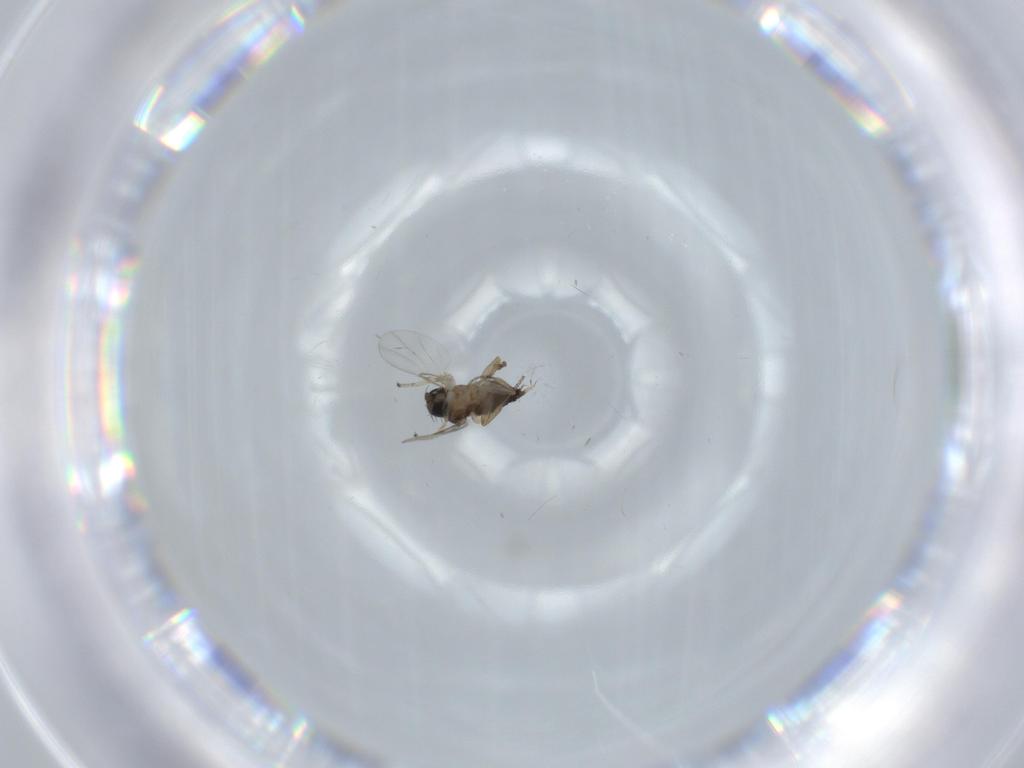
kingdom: Animalia
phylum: Arthropoda
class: Insecta
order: Diptera
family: Phoridae
